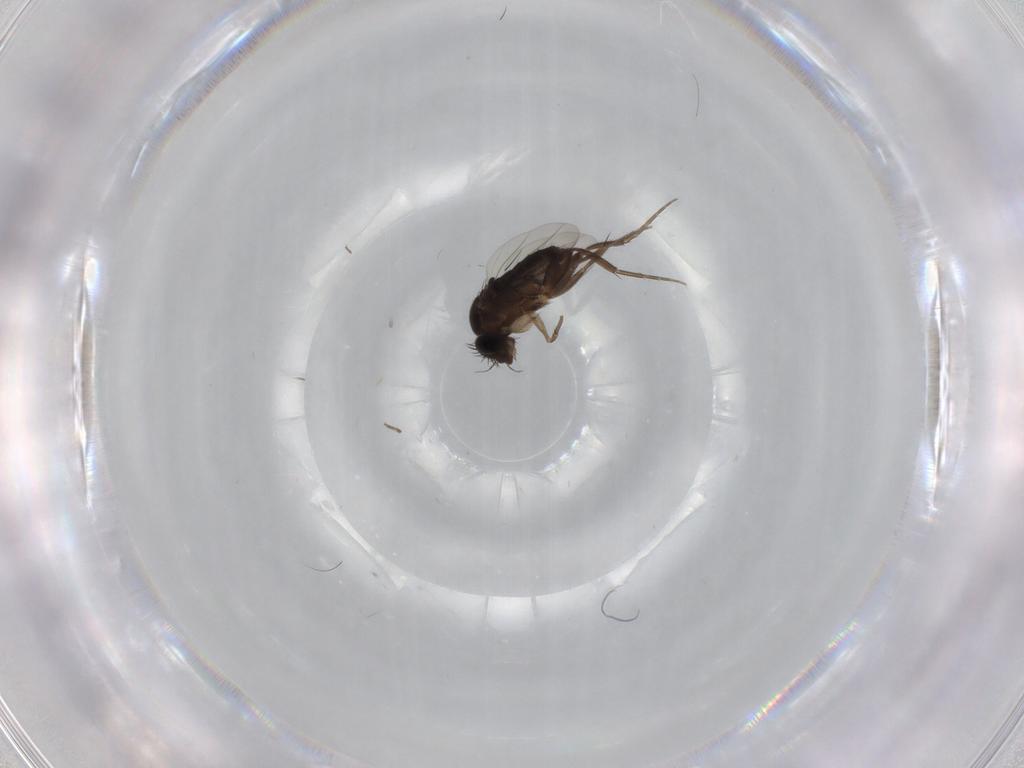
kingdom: Animalia
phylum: Arthropoda
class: Insecta
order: Diptera
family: Phoridae
